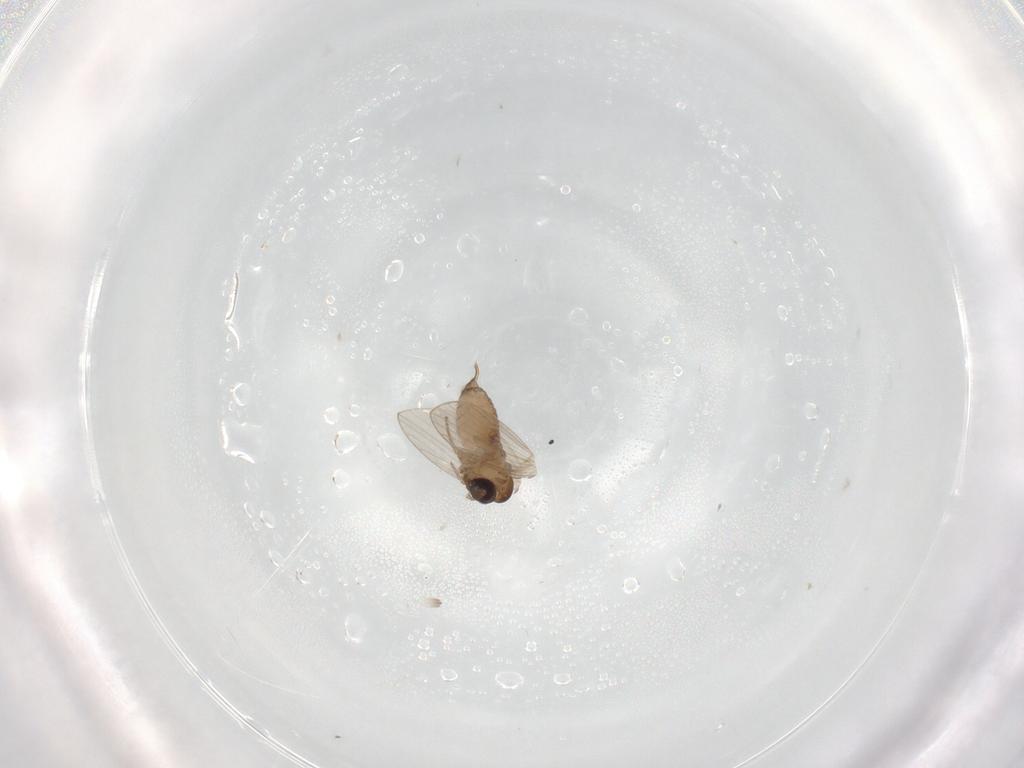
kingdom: Animalia
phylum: Arthropoda
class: Insecta
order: Diptera
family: Psychodidae
